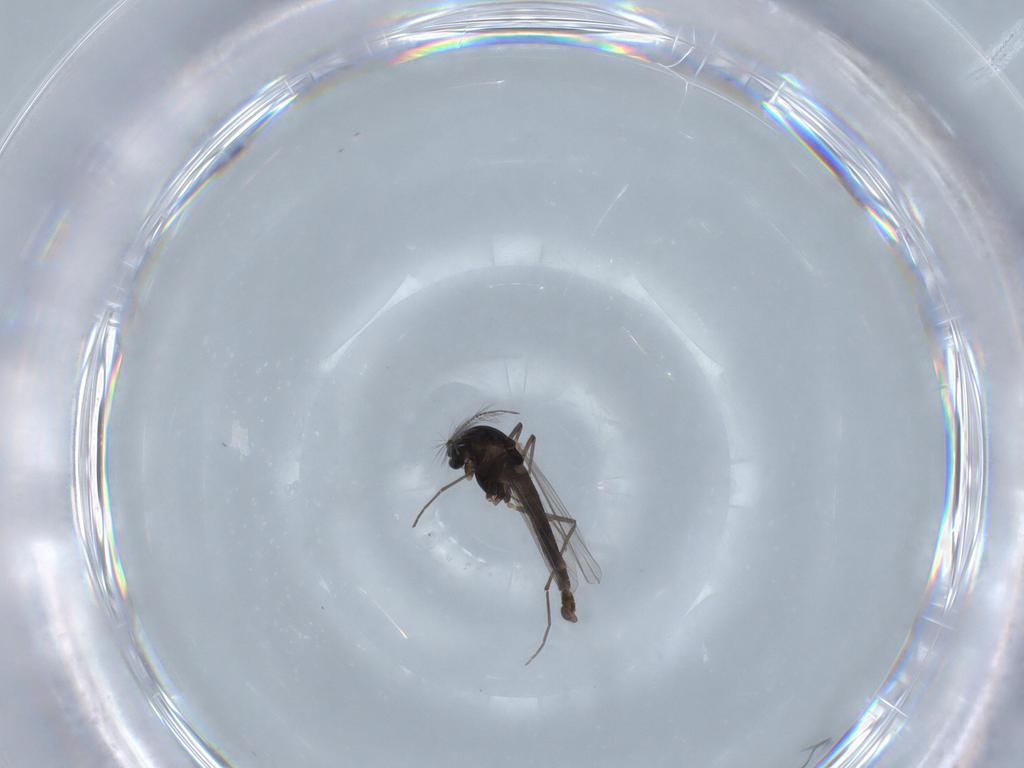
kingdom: Animalia
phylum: Arthropoda
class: Insecta
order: Diptera
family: Chironomidae
